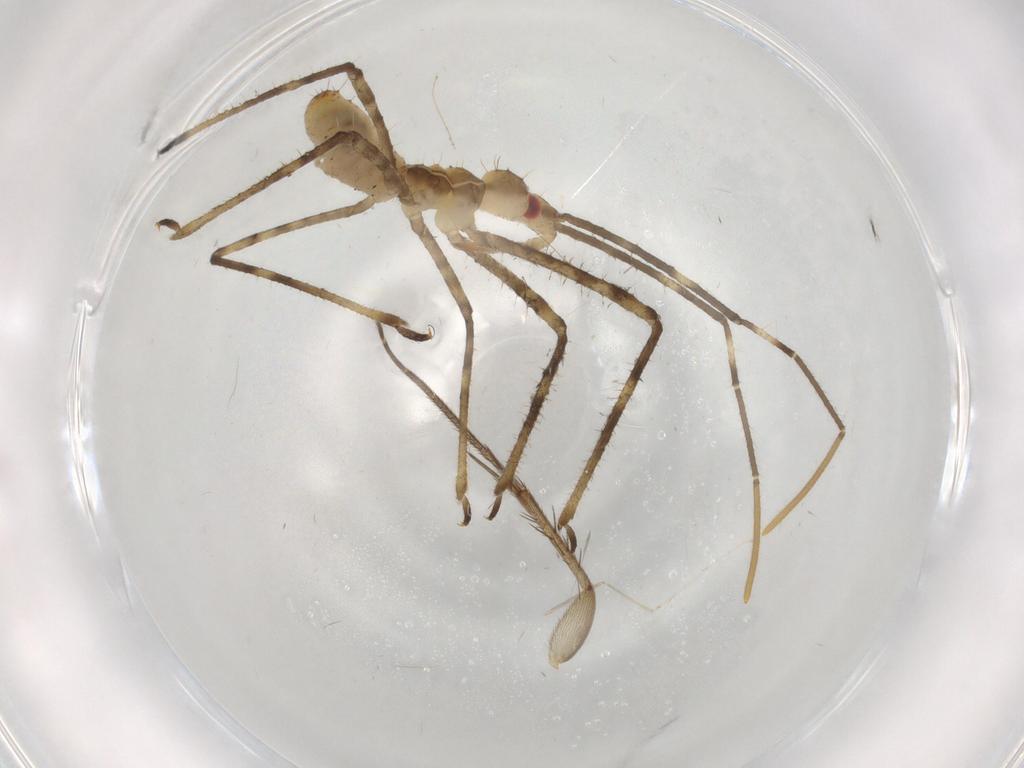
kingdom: Animalia
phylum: Arthropoda
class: Insecta
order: Hemiptera
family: Reduviidae
